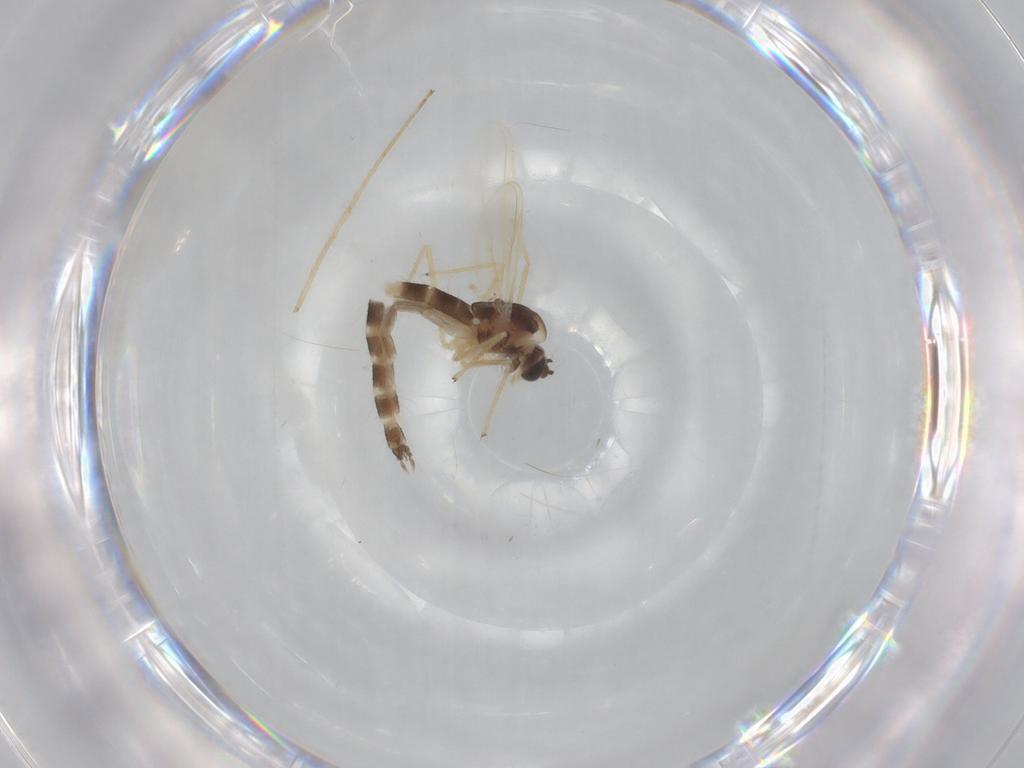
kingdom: Animalia
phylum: Arthropoda
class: Insecta
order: Diptera
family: Chironomidae
